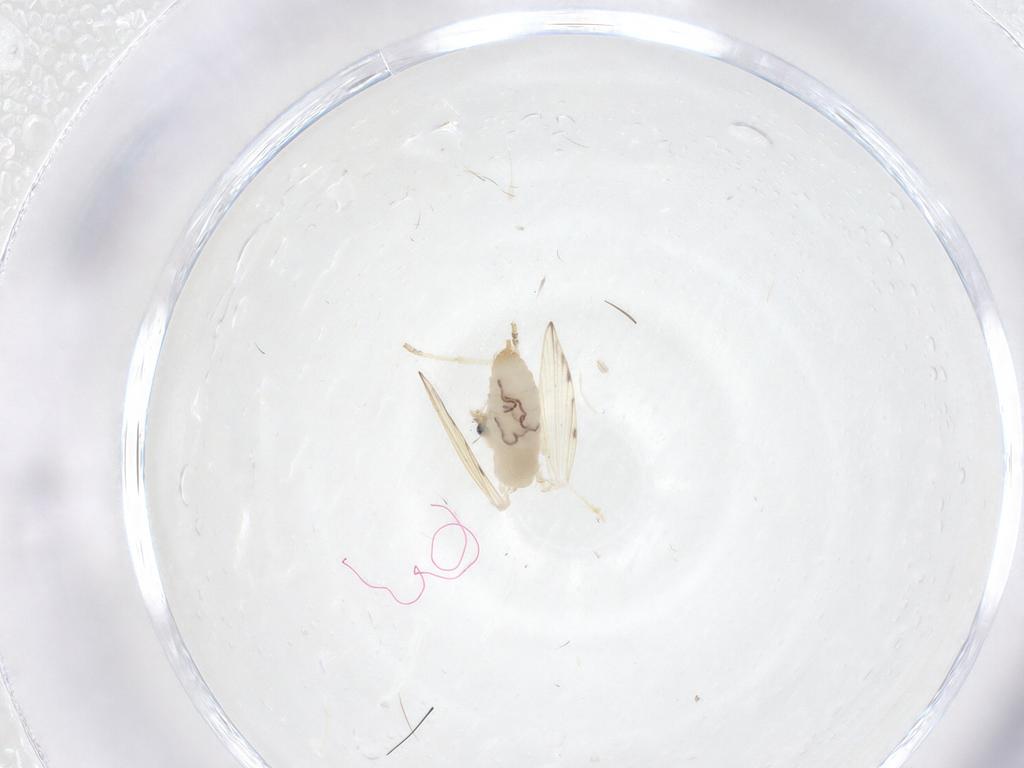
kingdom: Animalia
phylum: Arthropoda
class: Insecta
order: Diptera
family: Psychodidae
